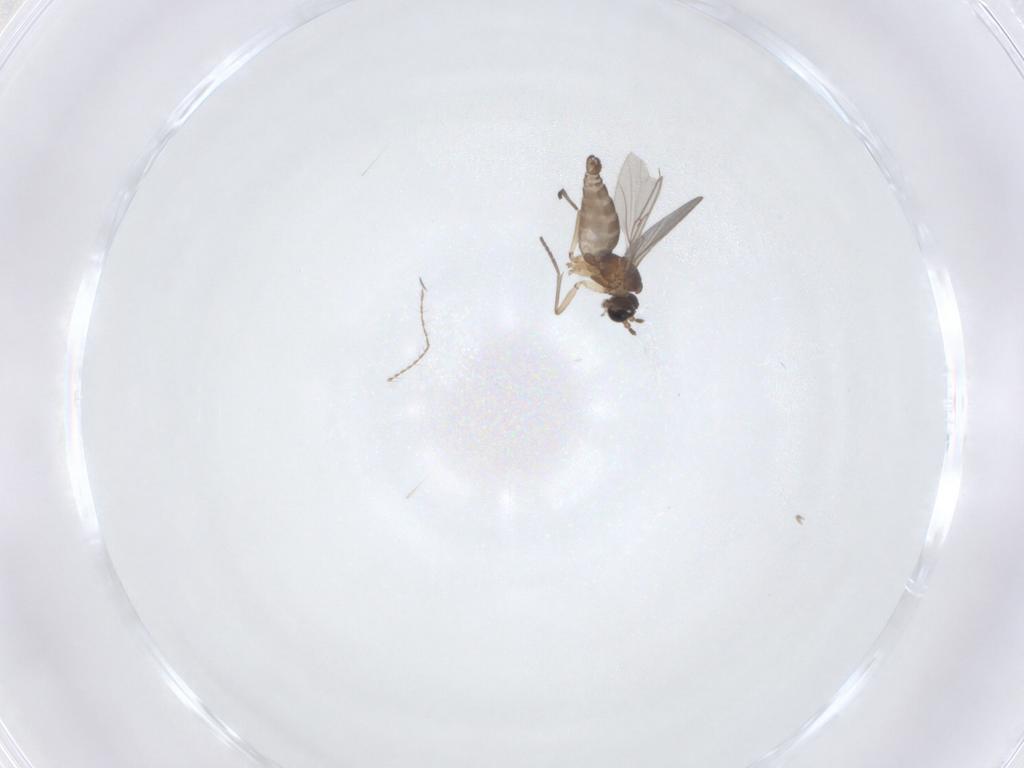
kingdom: Animalia
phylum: Arthropoda
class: Insecta
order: Diptera
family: Sciaridae
